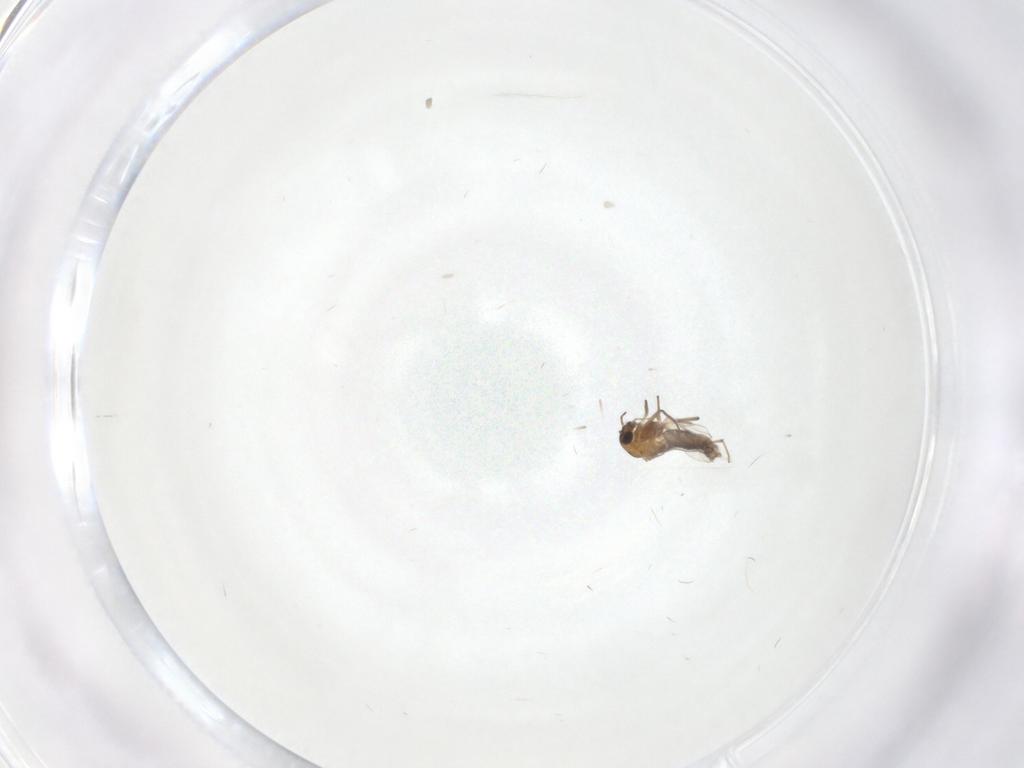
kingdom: Animalia
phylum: Arthropoda
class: Insecta
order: Diptera
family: Chironomidae
